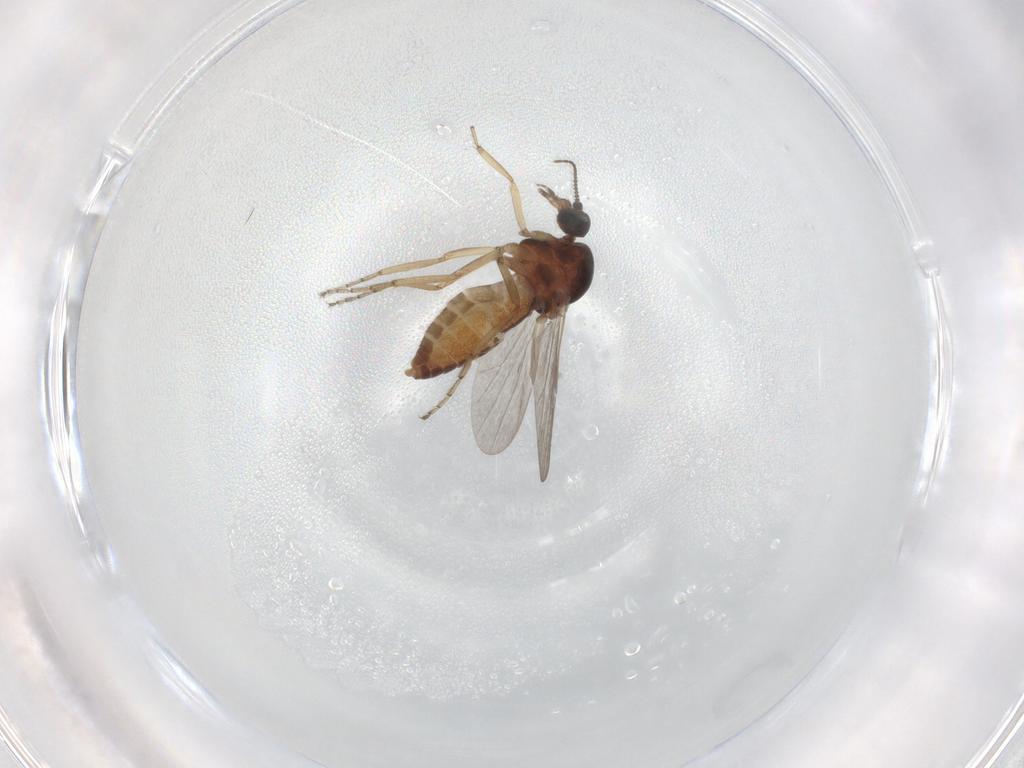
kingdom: Animalia
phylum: Arthropoda
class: Insecta
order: Diptera
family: Ceratopogonidae
